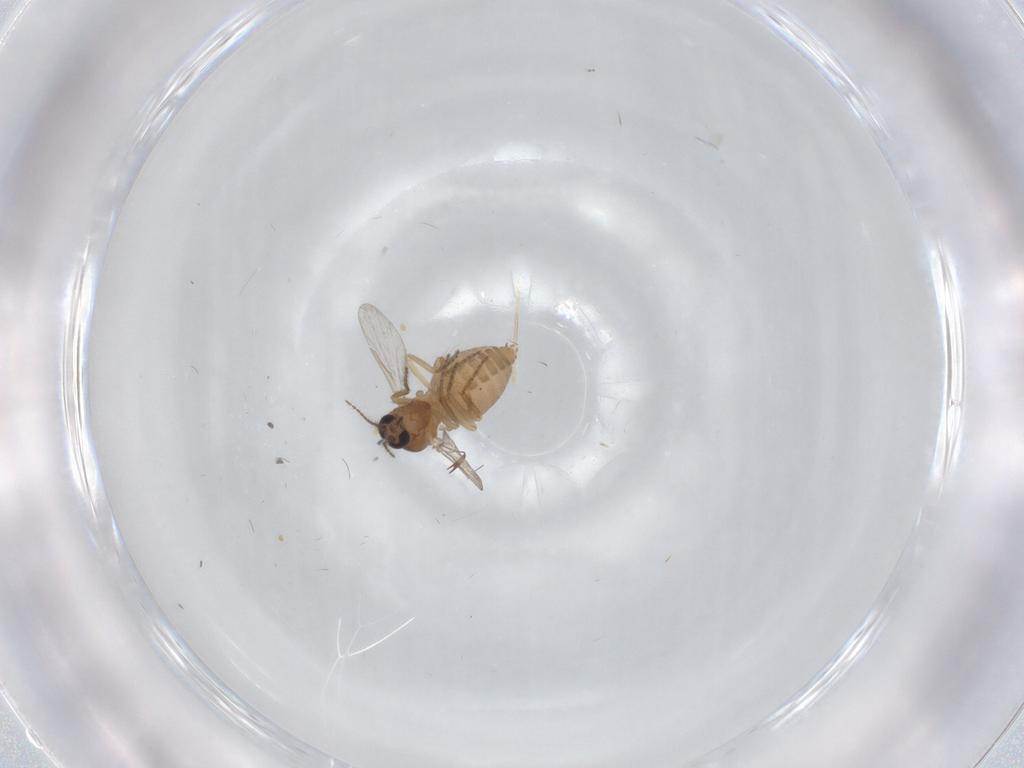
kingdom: Animalia
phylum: Arthropoda
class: Insecta
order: Diptera
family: Ceratopogonidae
